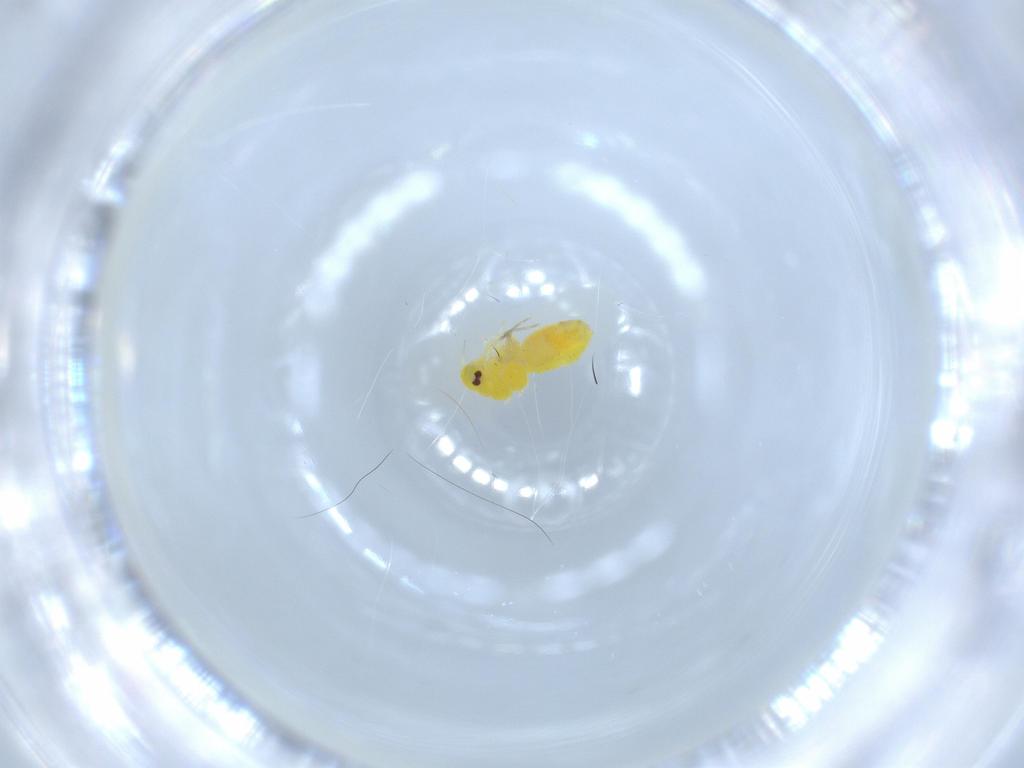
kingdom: Animalia
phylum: Arthropoda
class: Insecta
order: Hemiptera
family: Aleyrodidae
